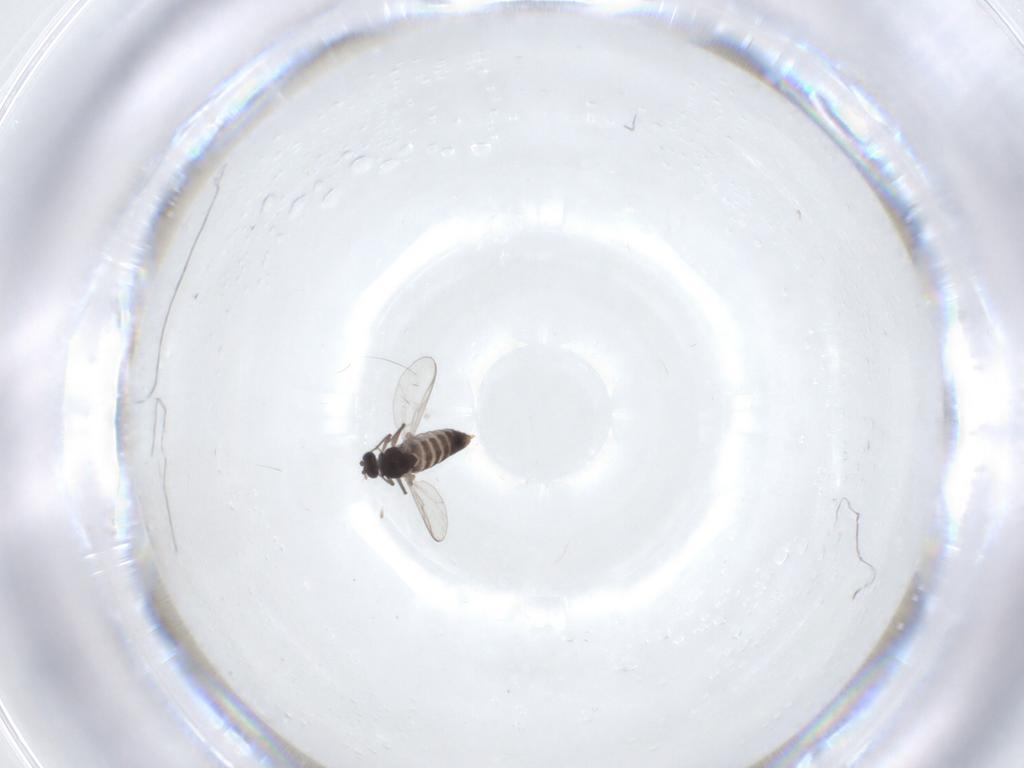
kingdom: Animalia
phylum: Arthropoda
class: Insecta
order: Diptera
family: Chironomidae
